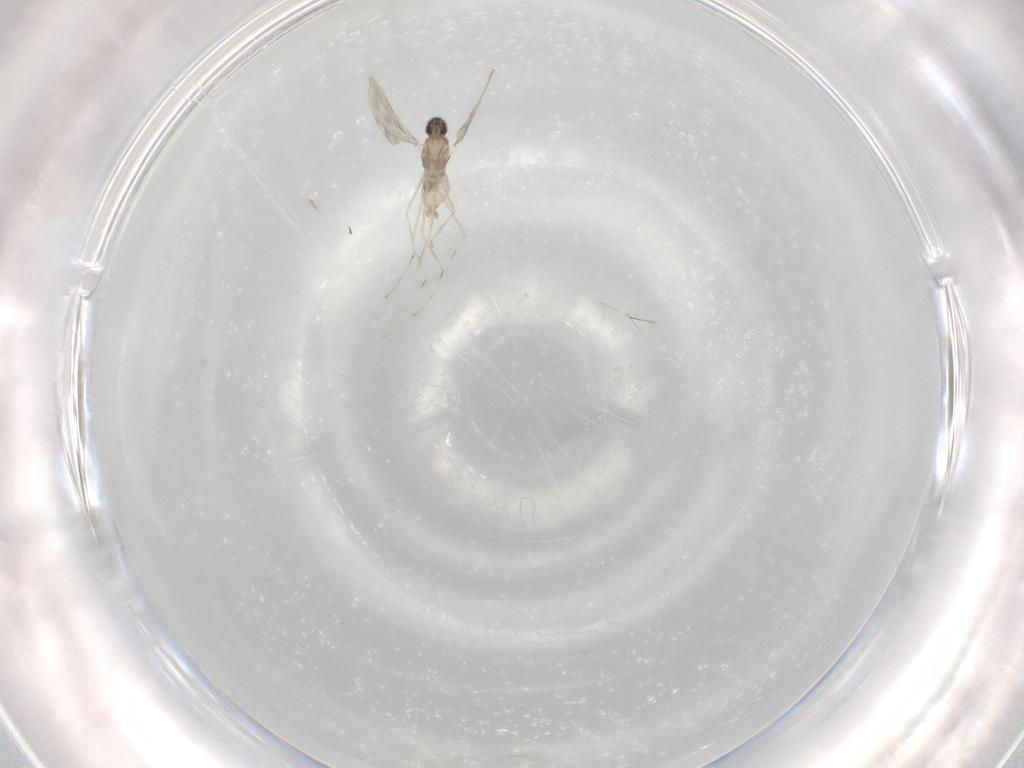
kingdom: Animalia
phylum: Arthropoda
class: Insecta
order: Diptera
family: Cecidomyiidae
